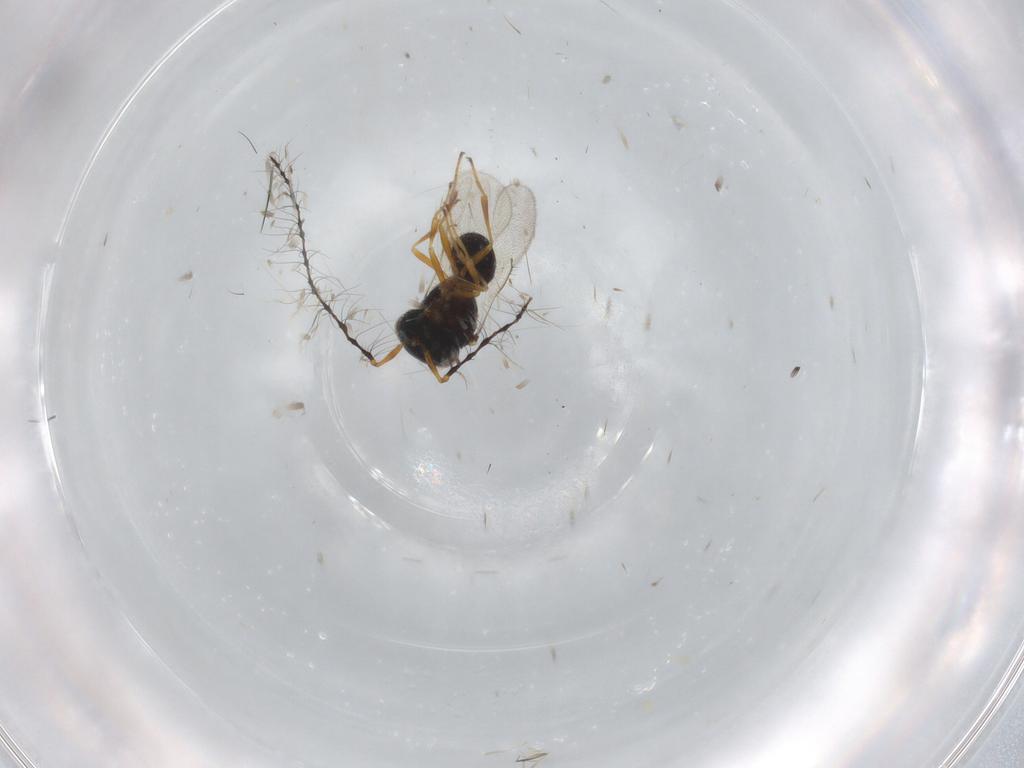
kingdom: Animalia
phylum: Arthropoda
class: Insecta
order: Hymenoptera
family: Scelionidae
